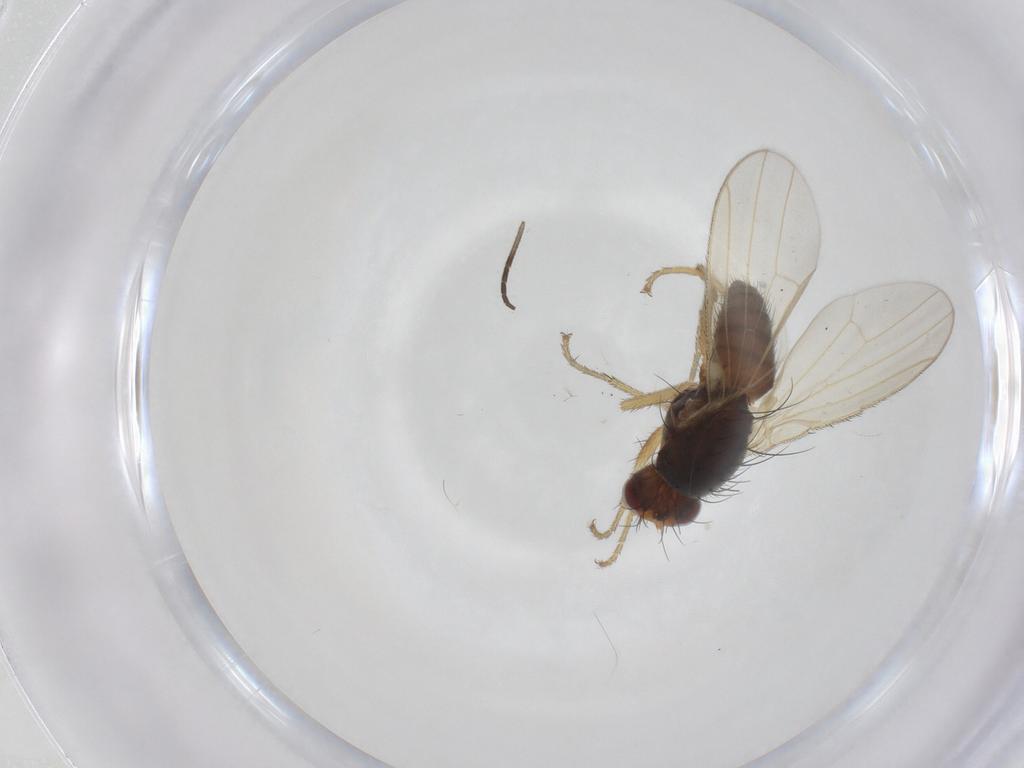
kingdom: Animalia
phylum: Arthropoda
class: Insecta
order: Diptera
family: Heleomyzidae
